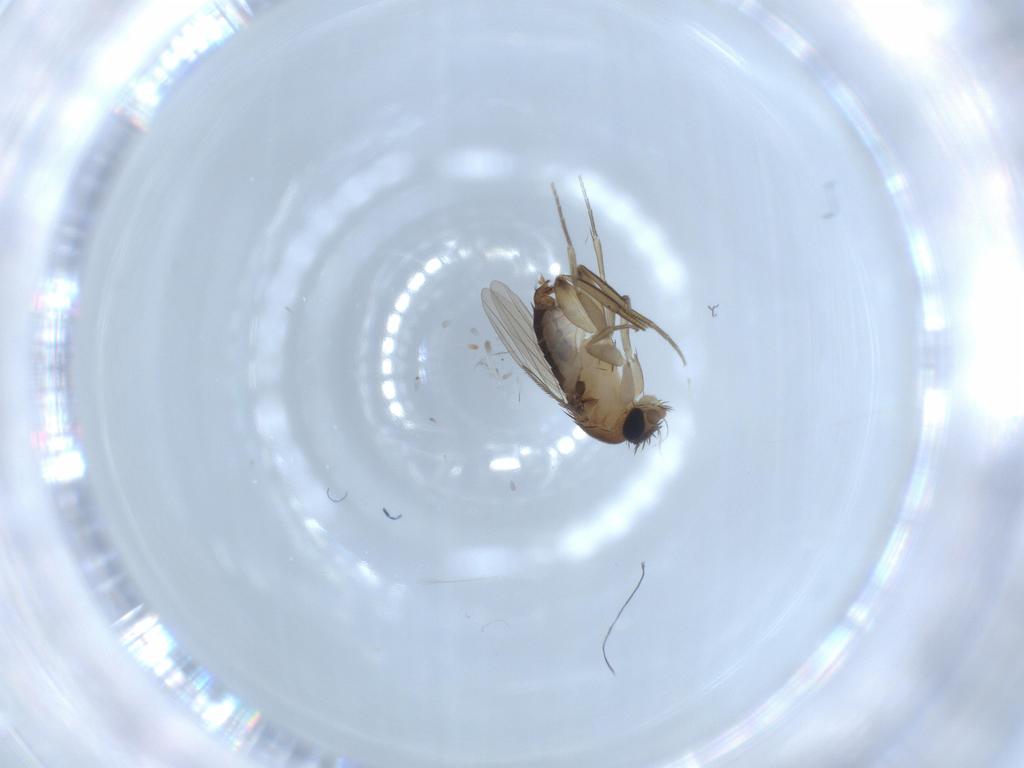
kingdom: Animalia
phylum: Arthropoda
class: Insecta
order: Diptera
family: Phoridae
